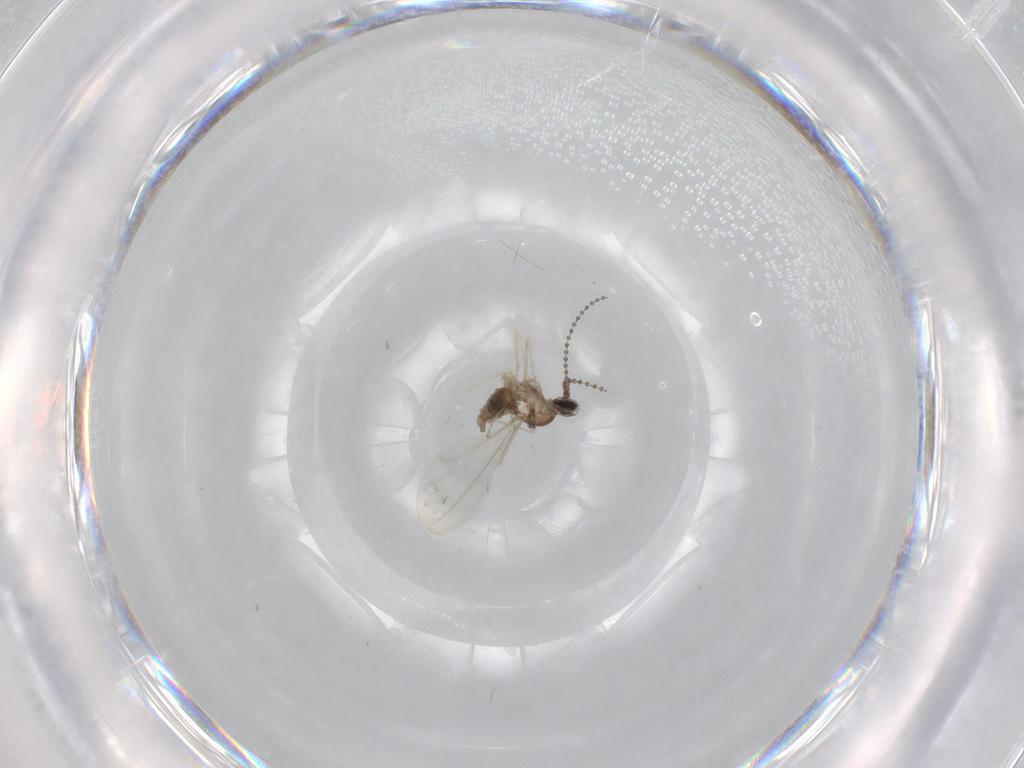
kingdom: Animalia
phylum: Arthropoda
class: Insecta
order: Diptera
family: Cecidomyiidae
